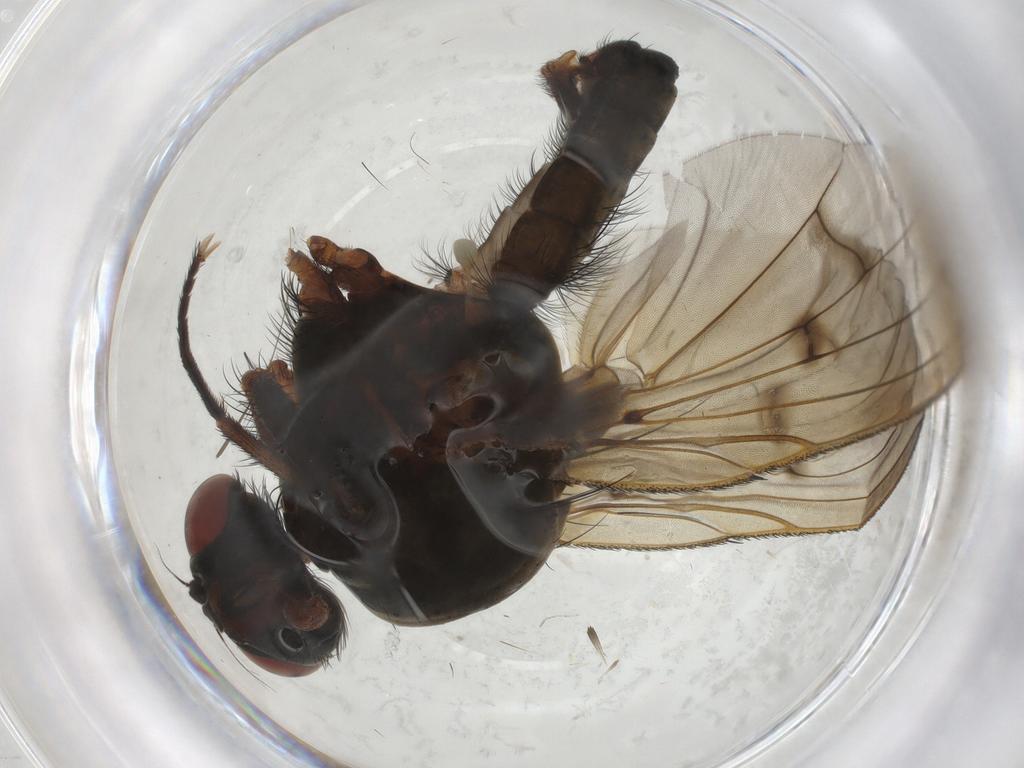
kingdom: Animalia
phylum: Arthropoda
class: Insecta
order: Diptera
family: Anthomyiidae
